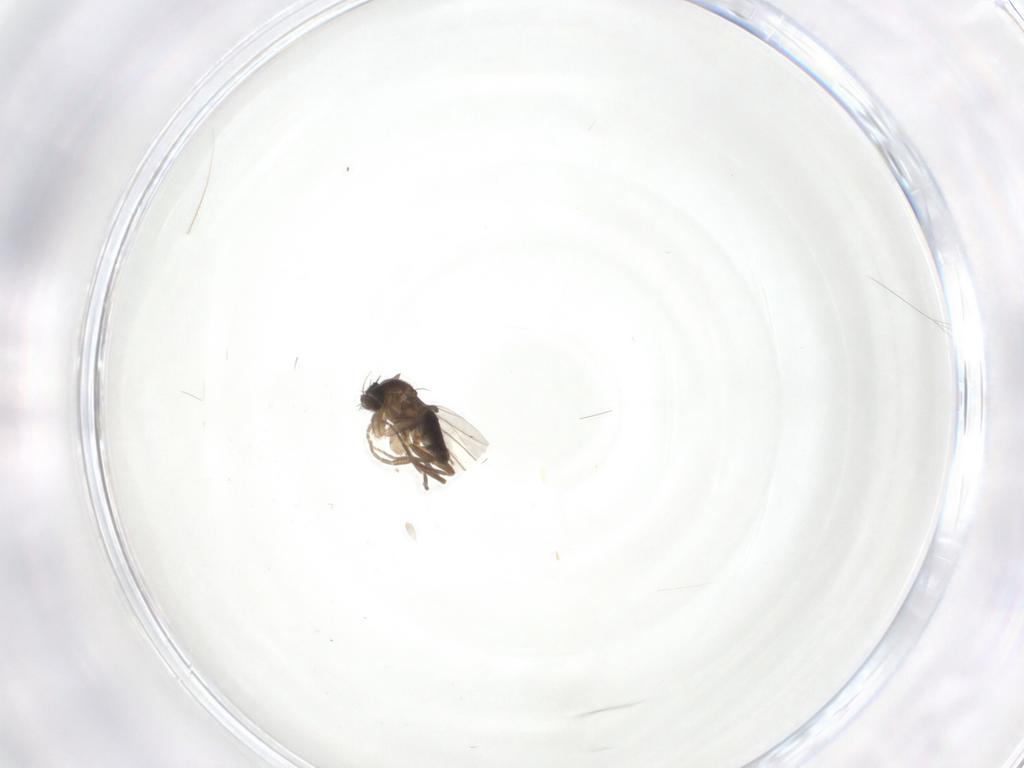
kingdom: Animalia
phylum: Arthropoda
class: Insecta
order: Diptera
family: Phoridae
